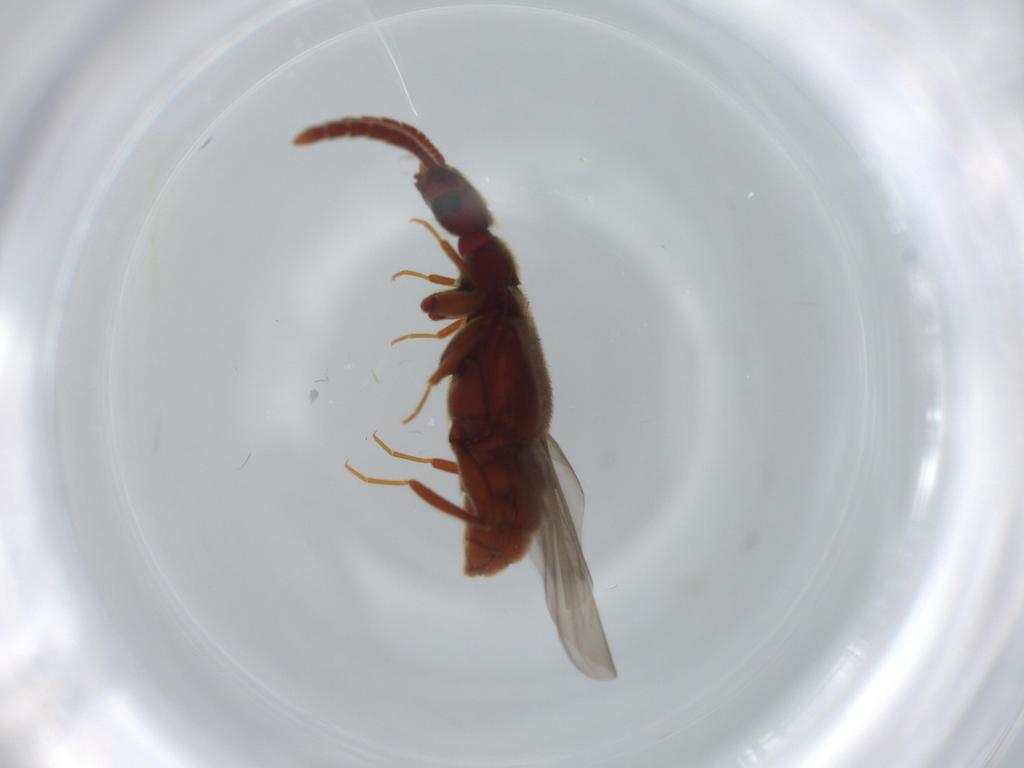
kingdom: Animalia
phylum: Arthropoda
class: Insecta
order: Coleoptera
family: Staphylinidae
